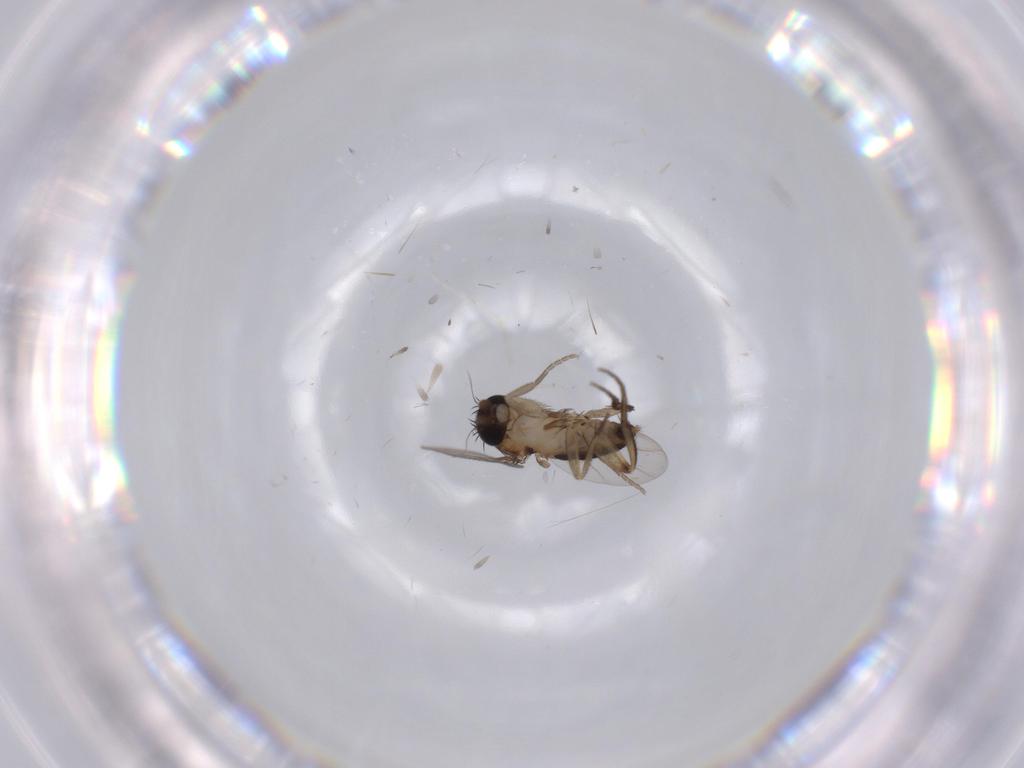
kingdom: Animalia
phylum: Arthropoda
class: Insecta
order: Diptera
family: Phoridae
